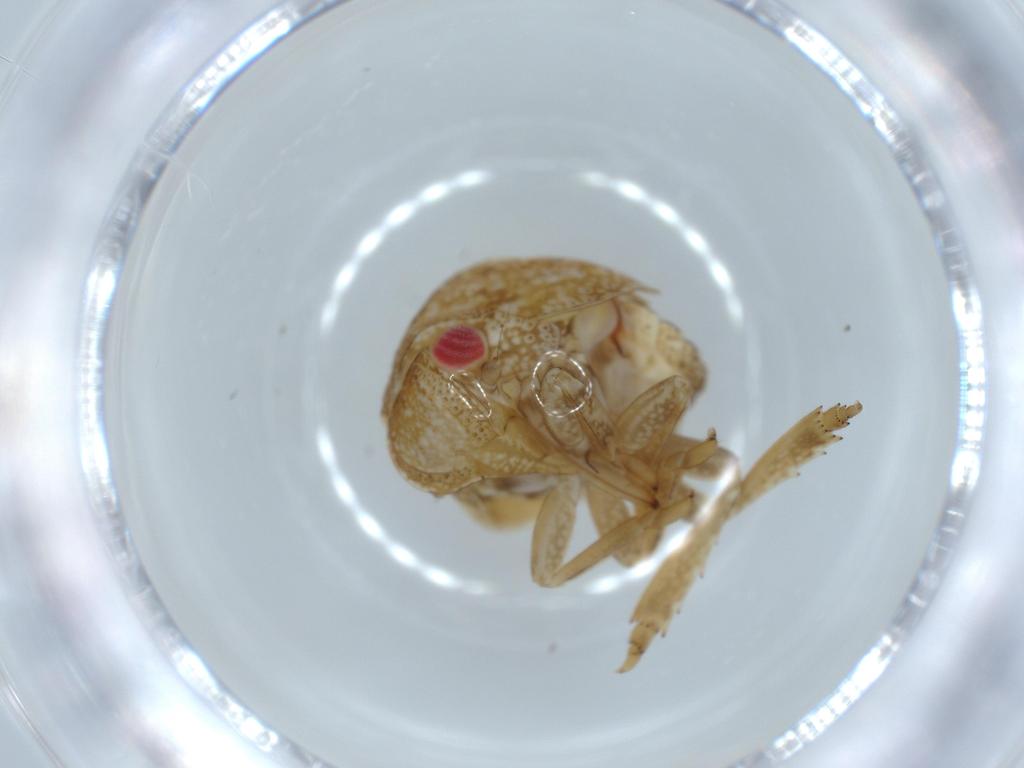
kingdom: Animalia
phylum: Arthropoda
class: Insecta
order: Hemiptera
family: Acanaloniidae
